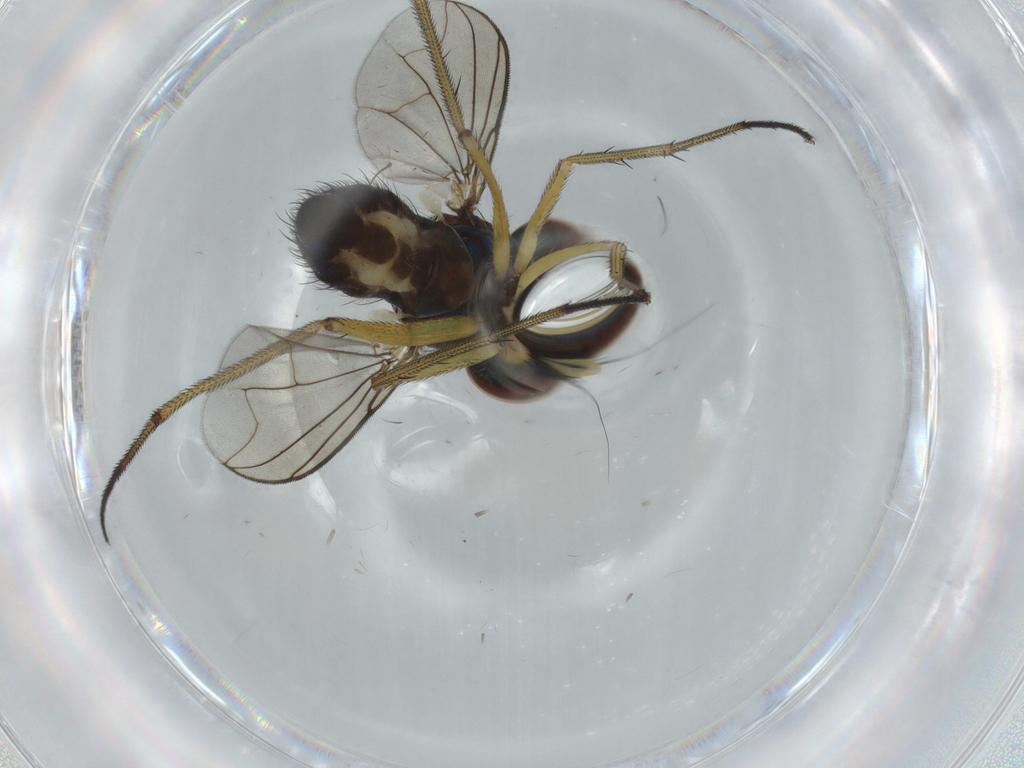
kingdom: Animalia
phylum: Arthropoda
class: Insecta
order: Diptera
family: Dolichopodidae
